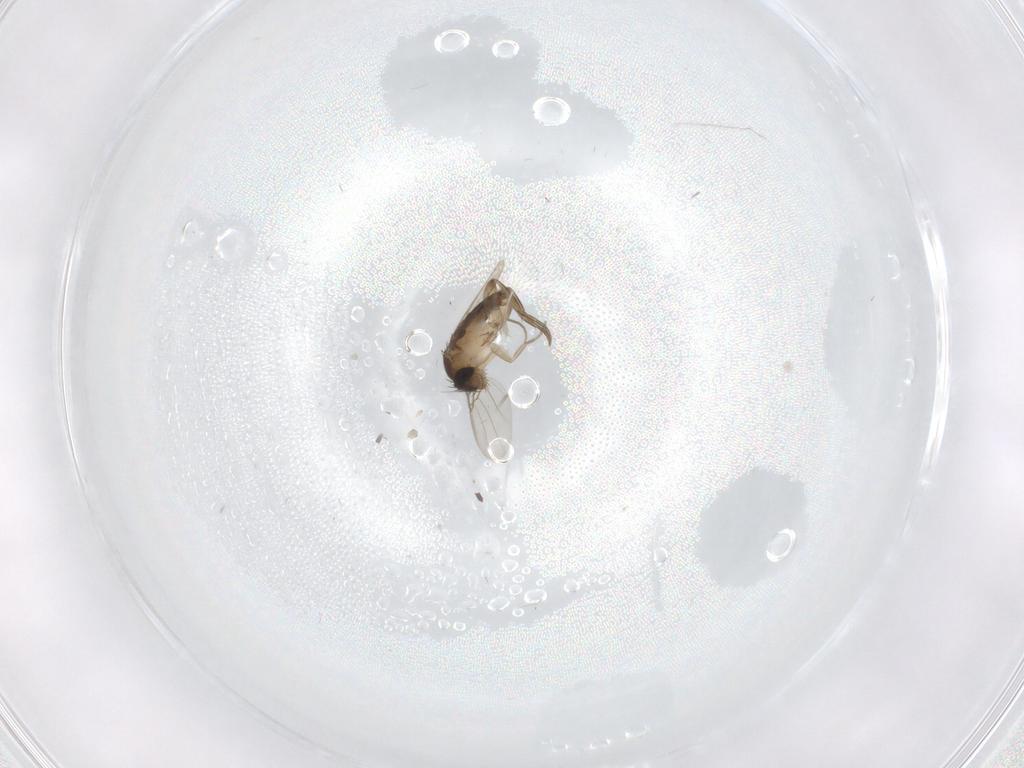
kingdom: Animalia
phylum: Arthropoda
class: Insecta
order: Diptera
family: Phoridae
